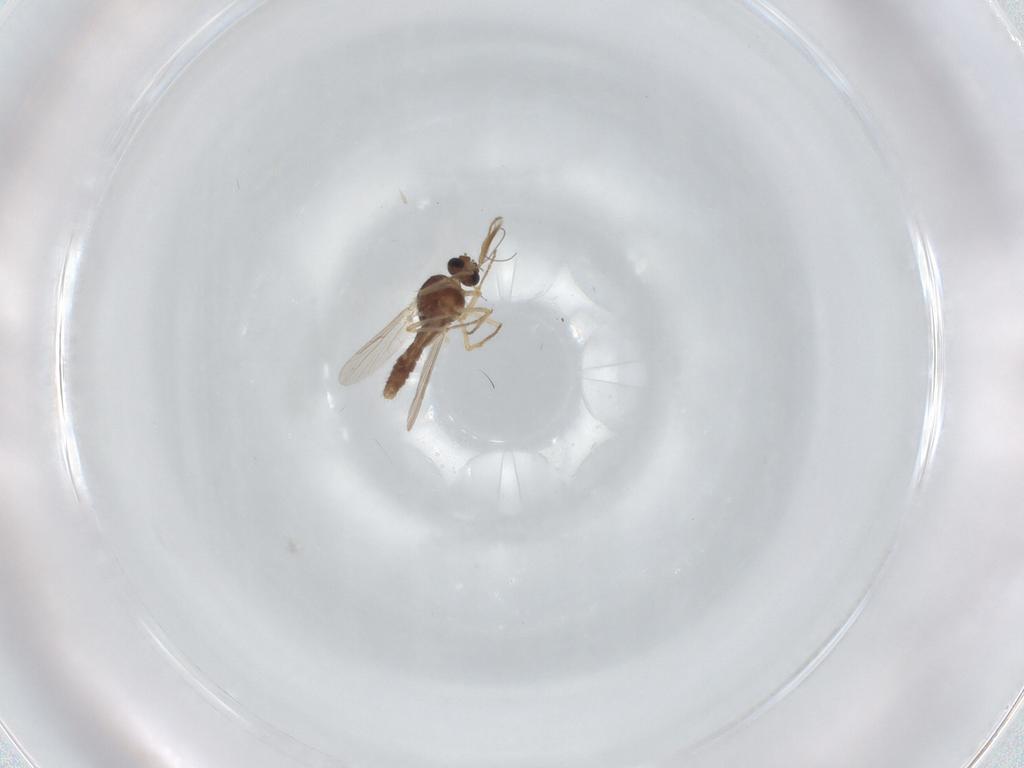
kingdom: Animalia
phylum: Arthropoda
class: Insecta
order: Diptera
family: Ceratopogonidae
